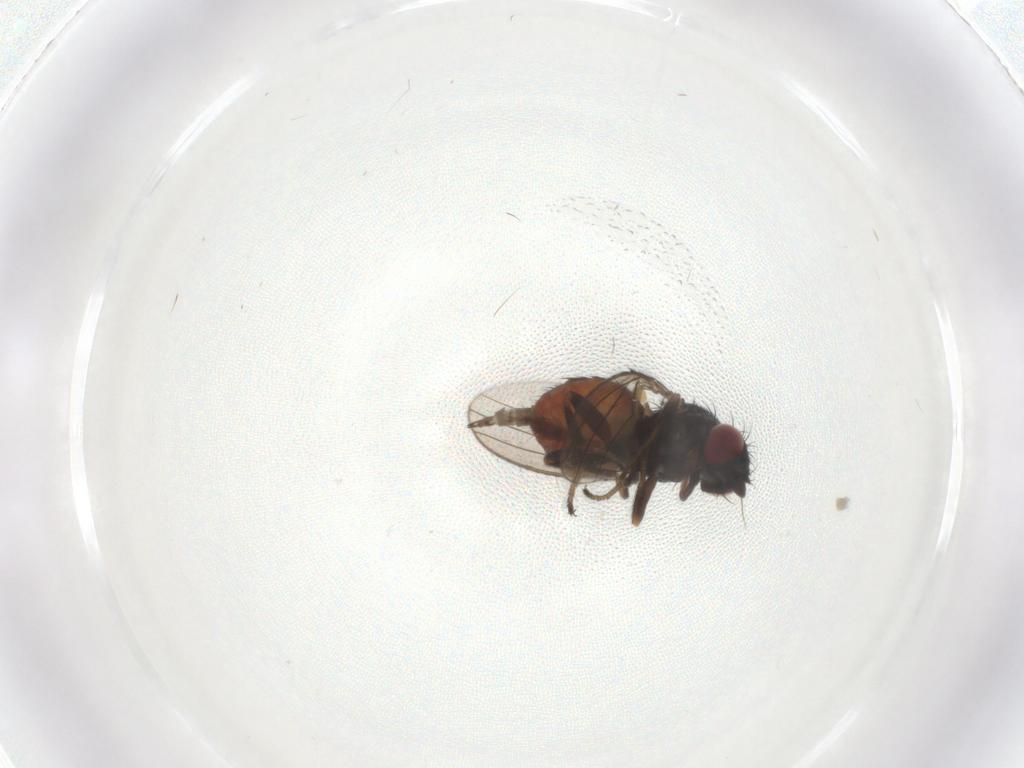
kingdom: Animalia
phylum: Arthropoda
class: Insecta
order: Diptera
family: Milichiidae
